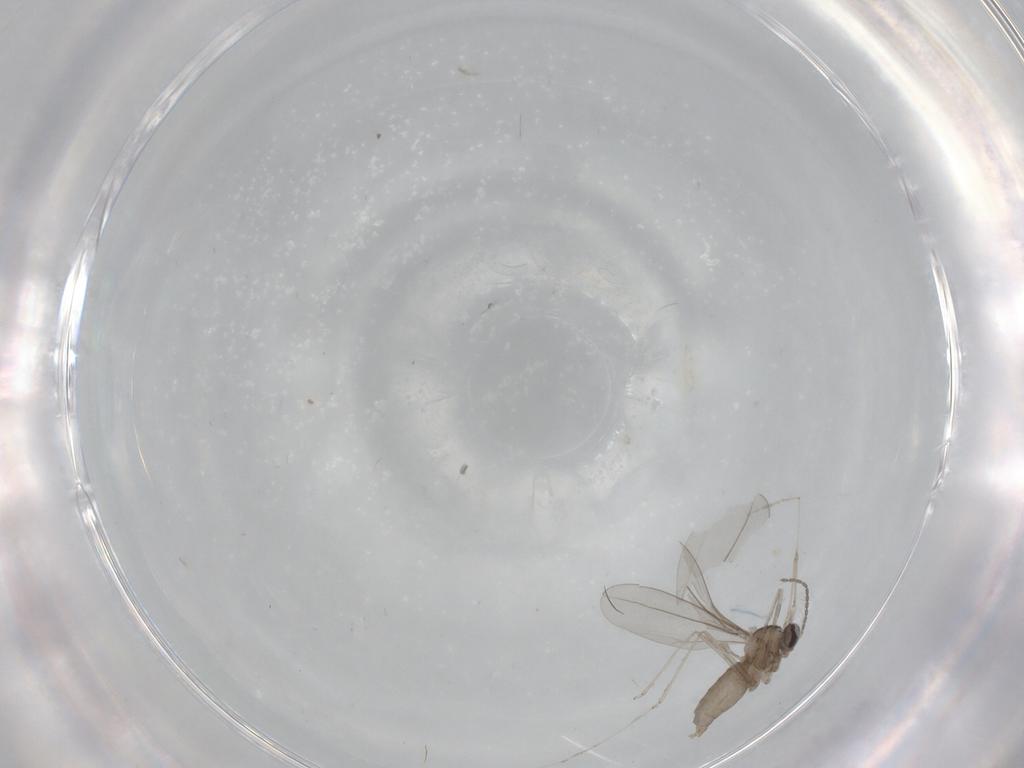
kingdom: Animalia
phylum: Arthropoda
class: Insecta
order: Diptera
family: Cecidomyiidae
